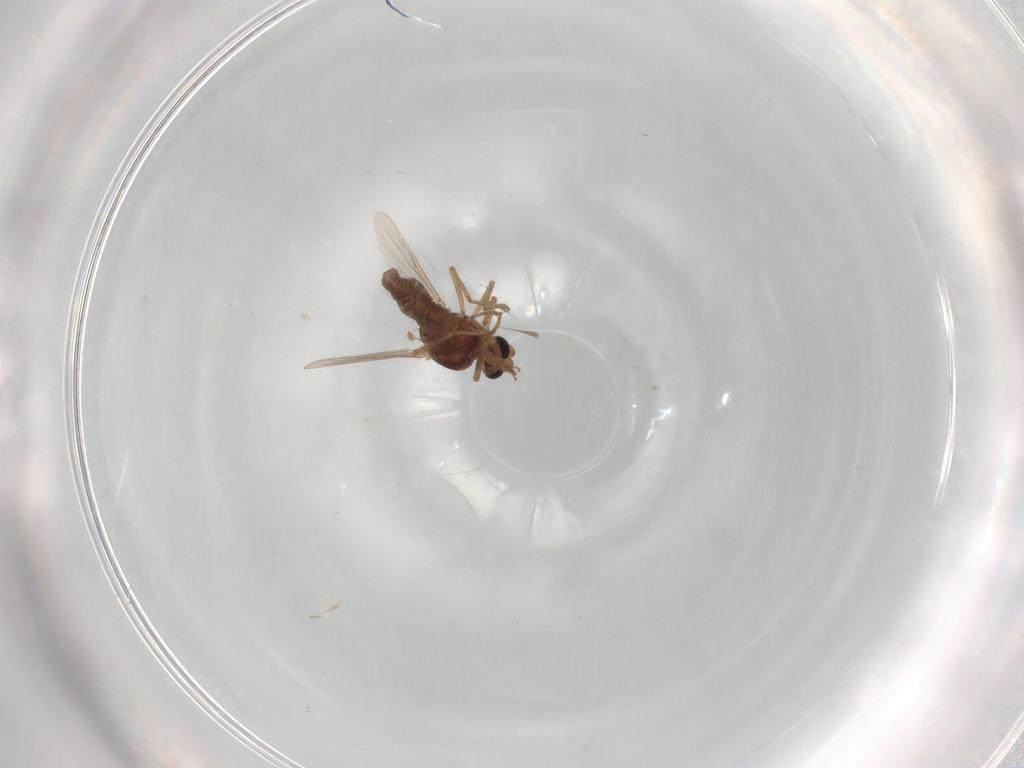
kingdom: Animalia
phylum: Arthropoda
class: Insecta
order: Diptera
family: Ceratopogonidae
